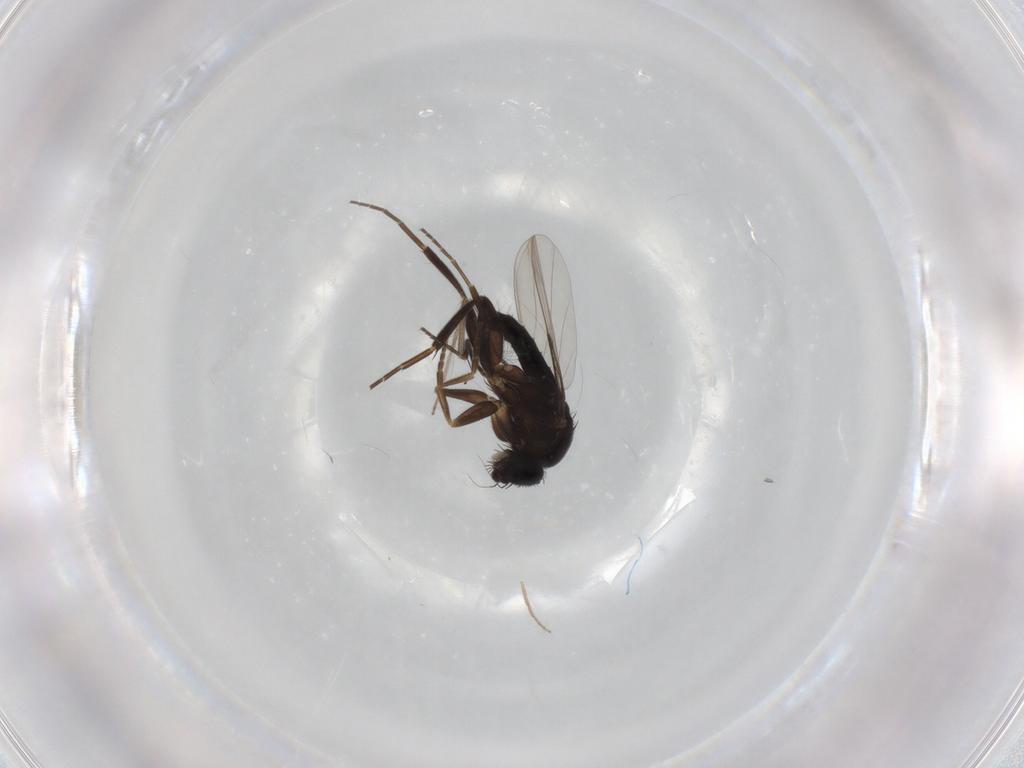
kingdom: Animalia
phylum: Arthropoda
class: Insecta
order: Diptera
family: Phoridae
